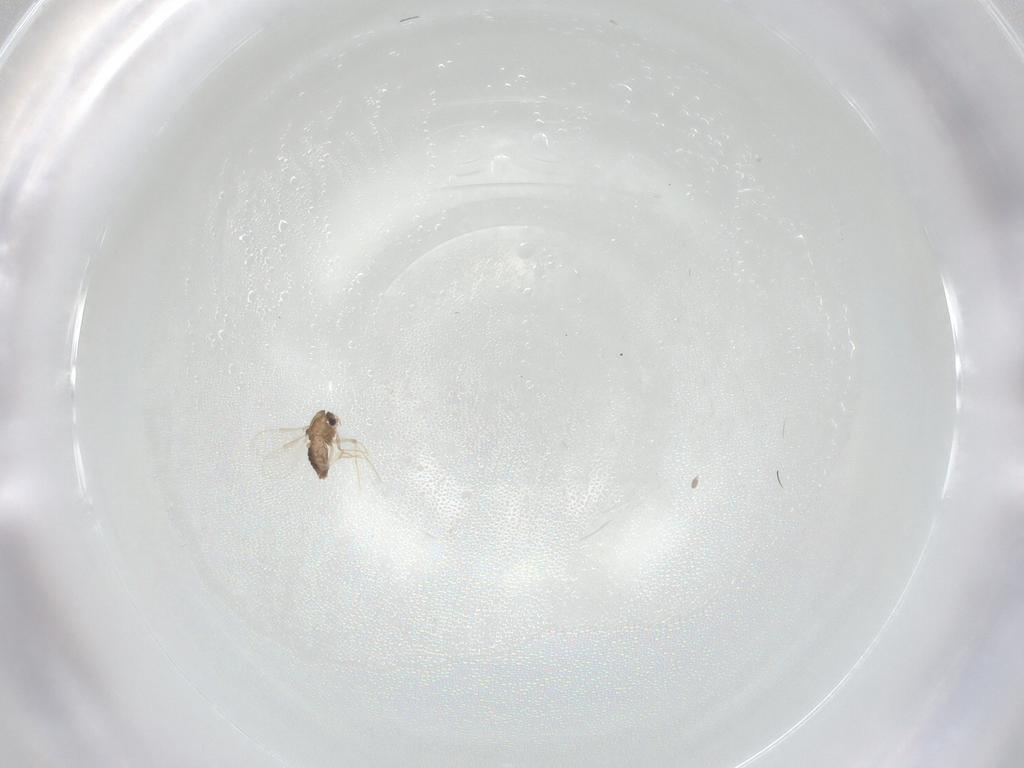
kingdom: Animalia
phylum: Arthropoda
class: Insecta
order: Diptera
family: Chironomidae
